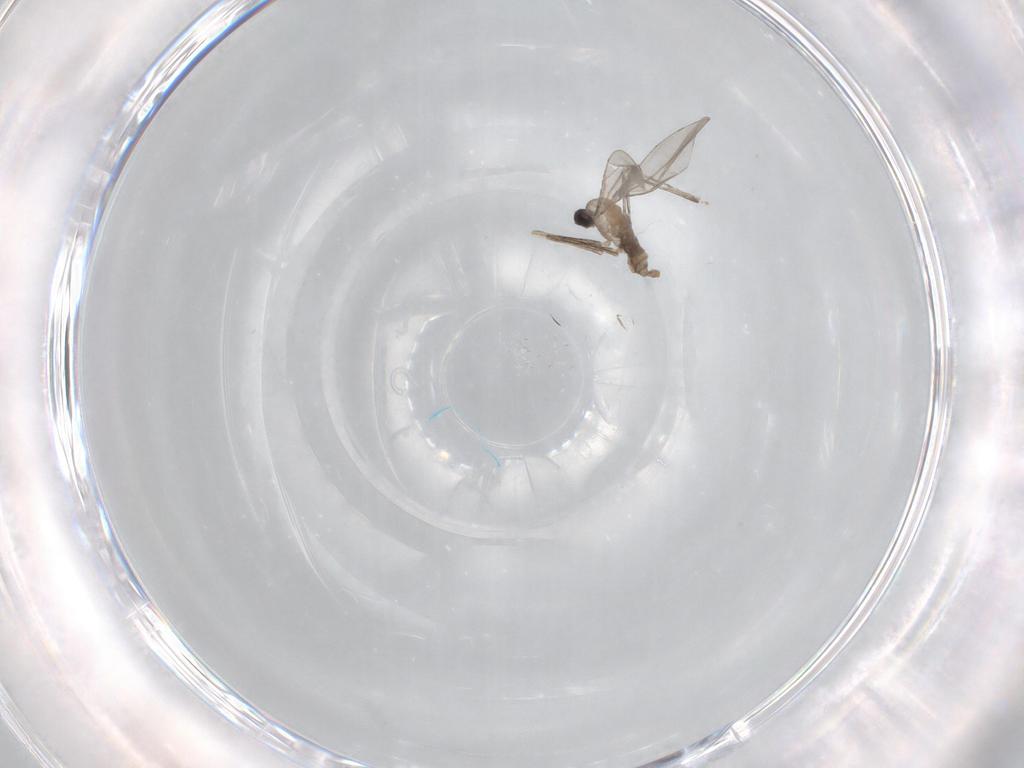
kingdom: Animalia
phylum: Arthropoda
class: Insecta
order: Diptera
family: Cecidomyiidae
